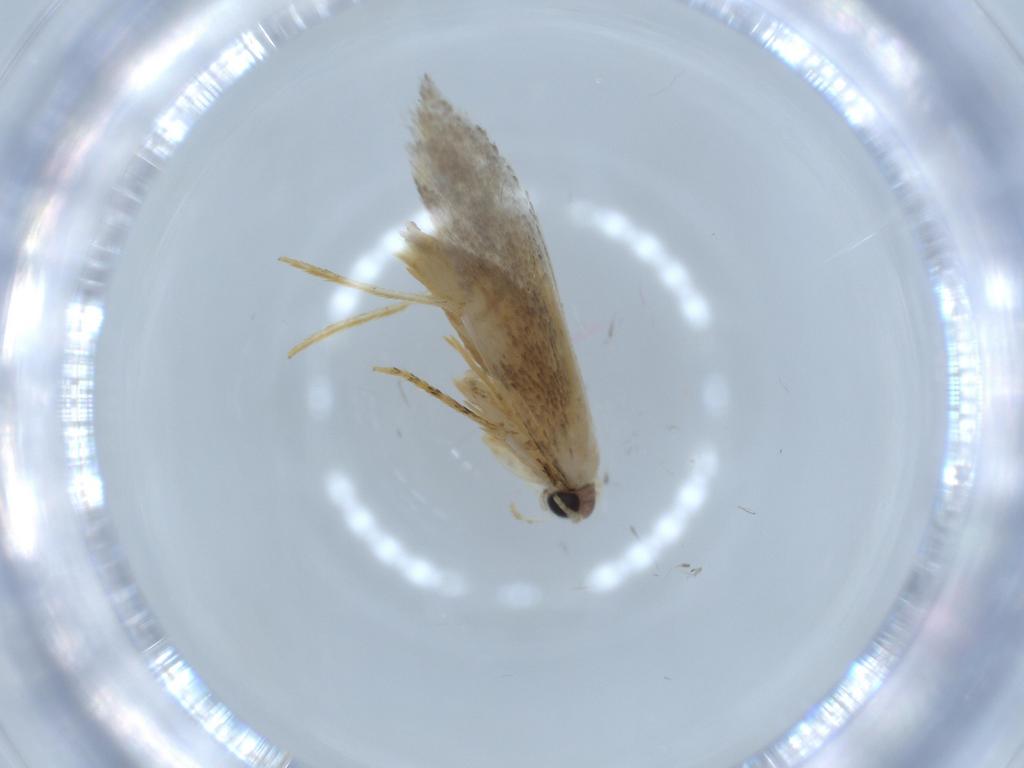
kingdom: Animalia
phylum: Arthropoda
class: Insecta
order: Lepidoptera
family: Tineidae
